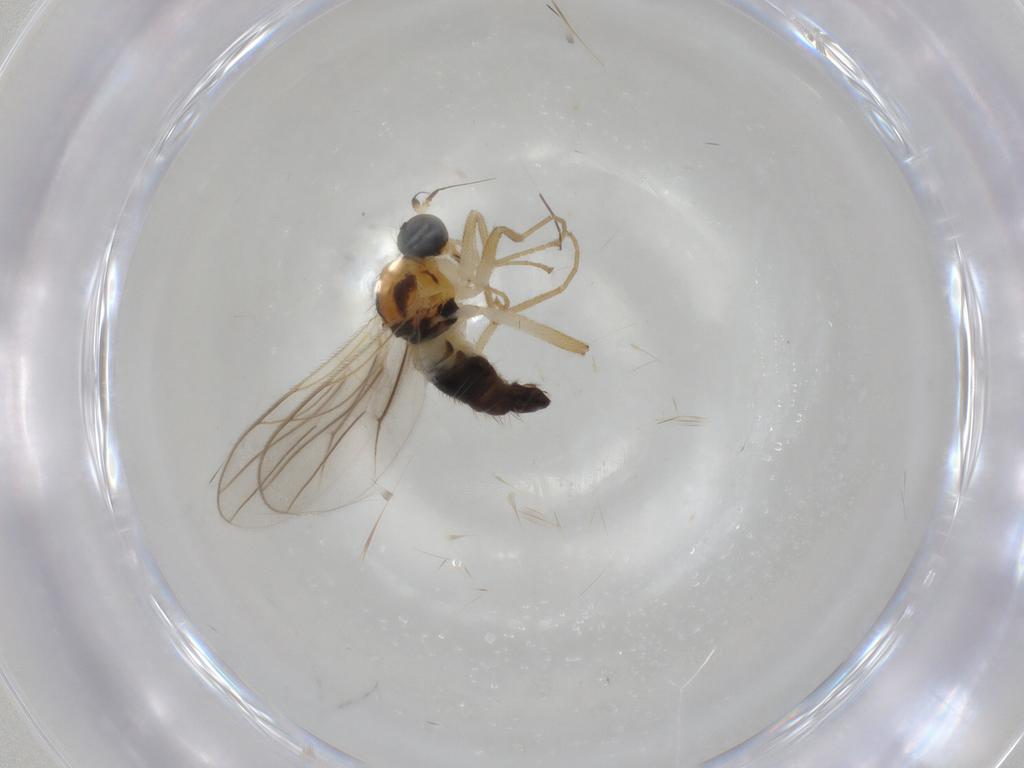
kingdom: Animalia
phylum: Arthropoda
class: Insecta
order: Diptera
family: Hybotidae
